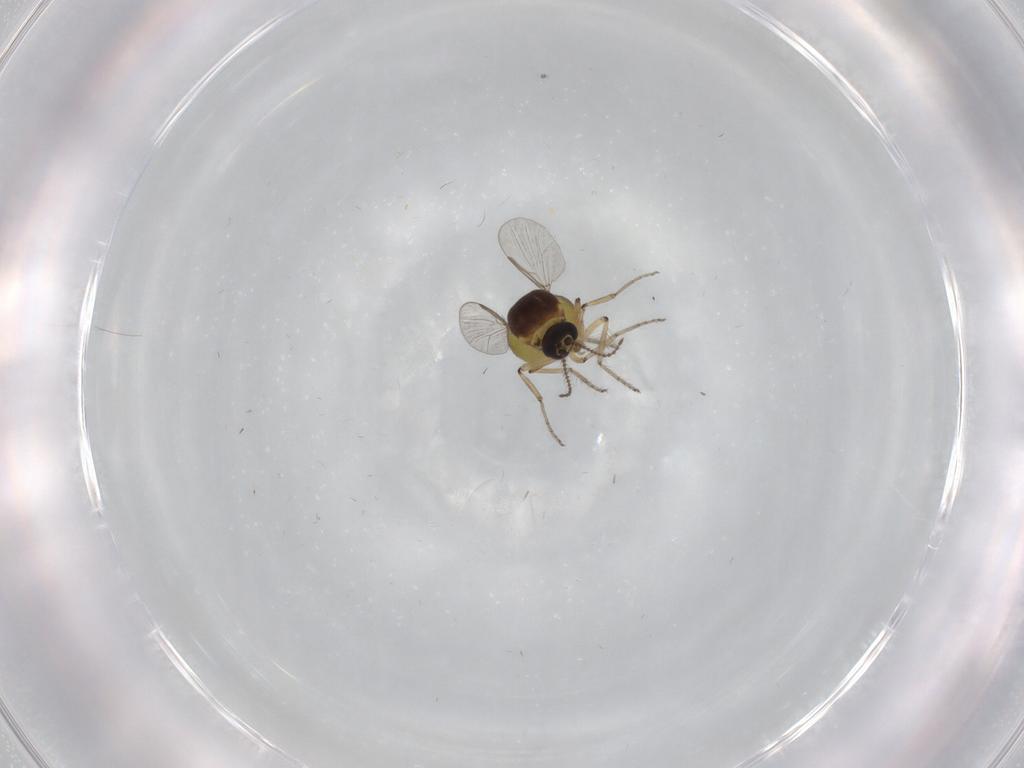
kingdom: Animalia
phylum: Arthropoda
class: Insecta
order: Diptera
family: Ceratopogonidae
